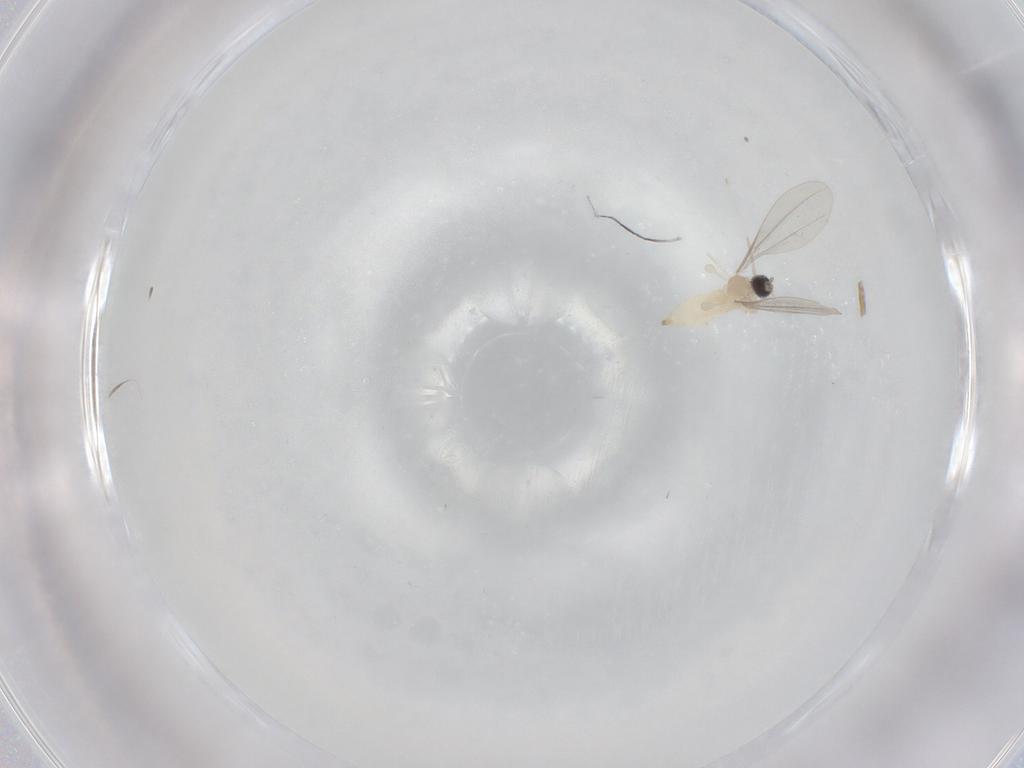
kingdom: Animalia
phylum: Arthropoda
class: Insecta
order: Diptera
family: Cecidomyiidae
